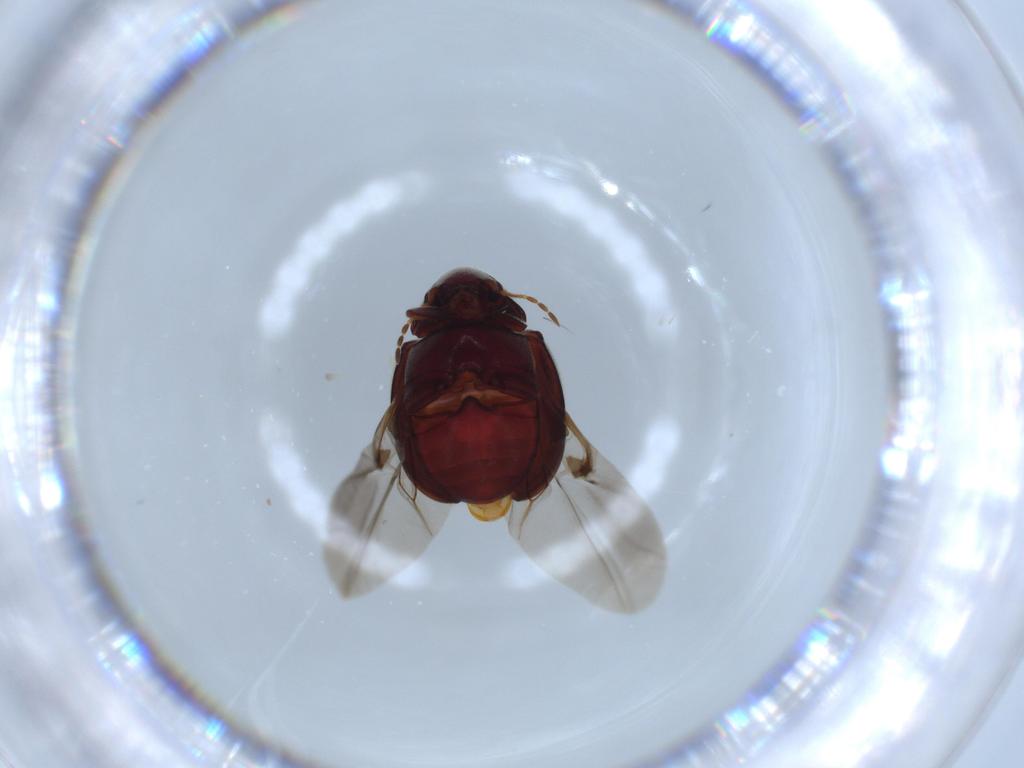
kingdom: Animalia
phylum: Arthropoda
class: Insecta
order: Coleoptera
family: Ptinidae
